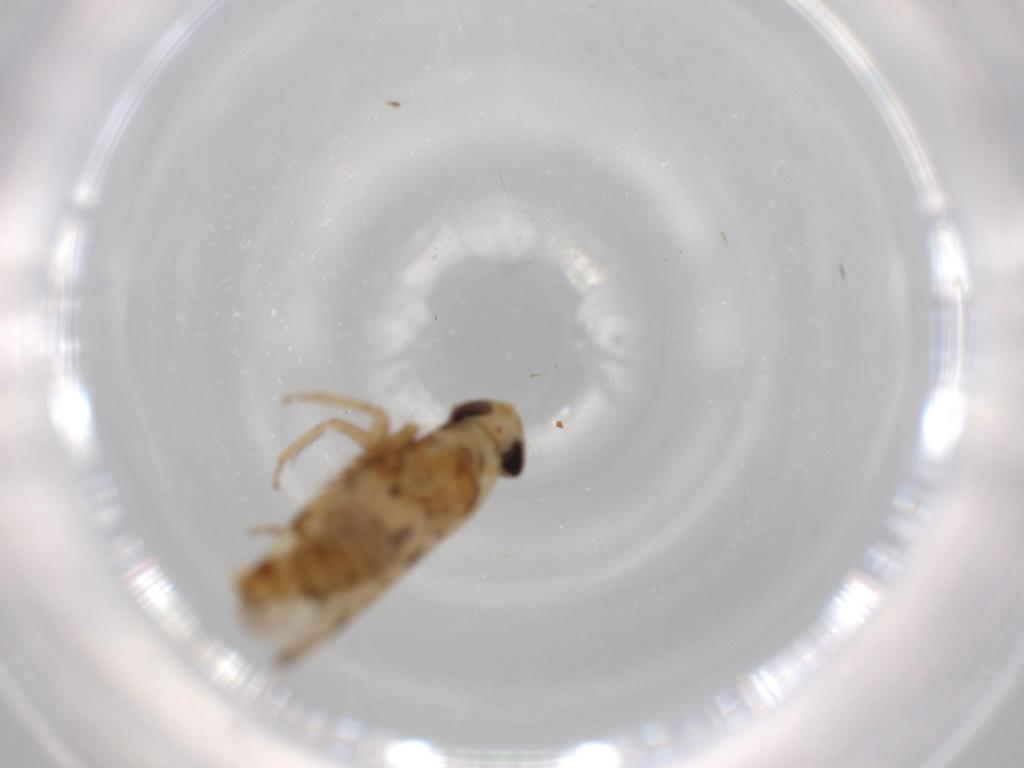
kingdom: Animalia
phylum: Arthropoda
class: Insecta
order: Hemiptera
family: Cicadellidae
